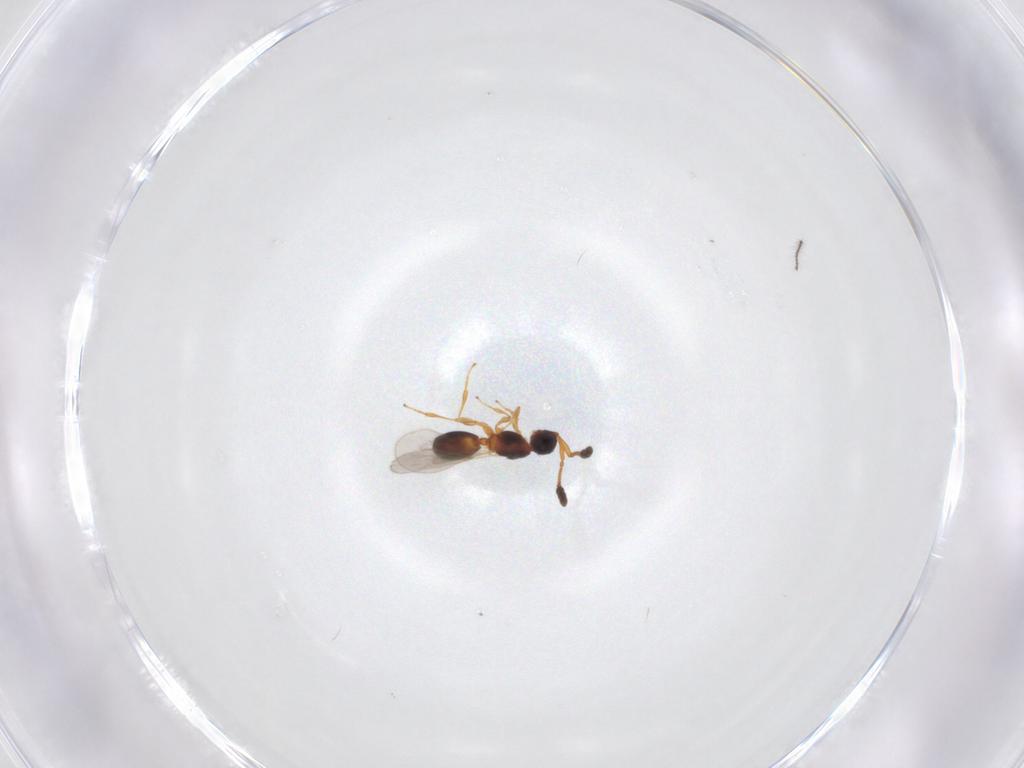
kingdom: Animalia
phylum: Arthropoda
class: Insecta
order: Hymenoptera
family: Diapriidae
